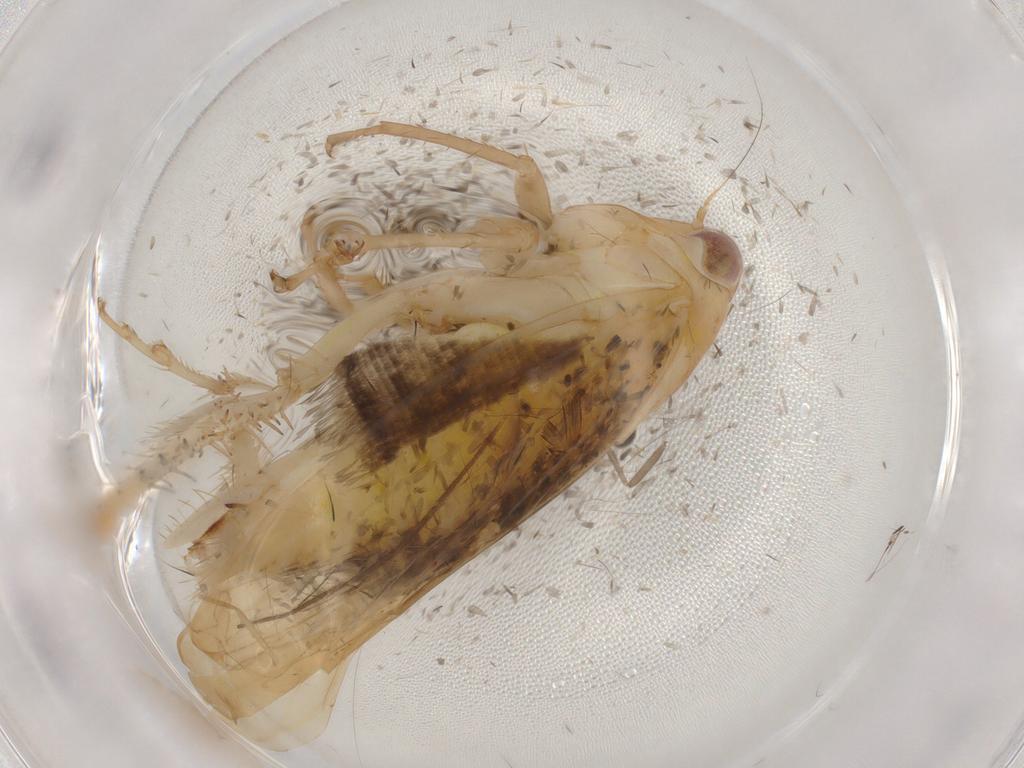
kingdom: Animalia
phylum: Arthropoda
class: Insecta
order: Hemiptera
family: Cicadellidae
